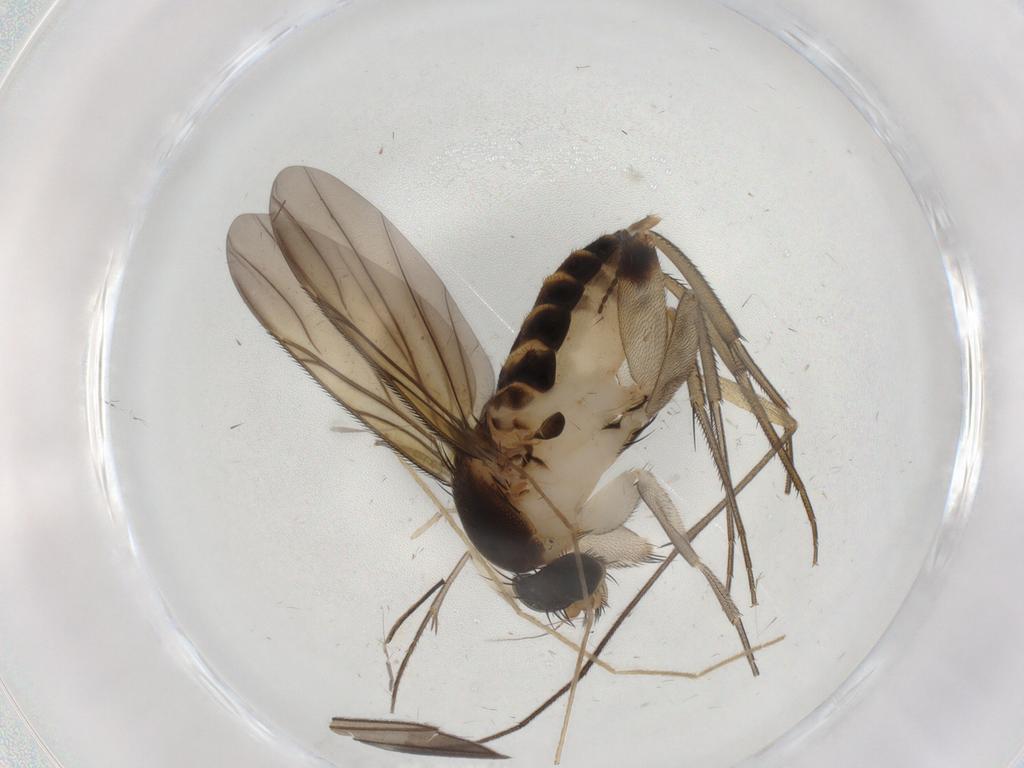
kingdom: Animalia
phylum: Arthropoda
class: Insecta
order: Diptera
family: Phoridae
